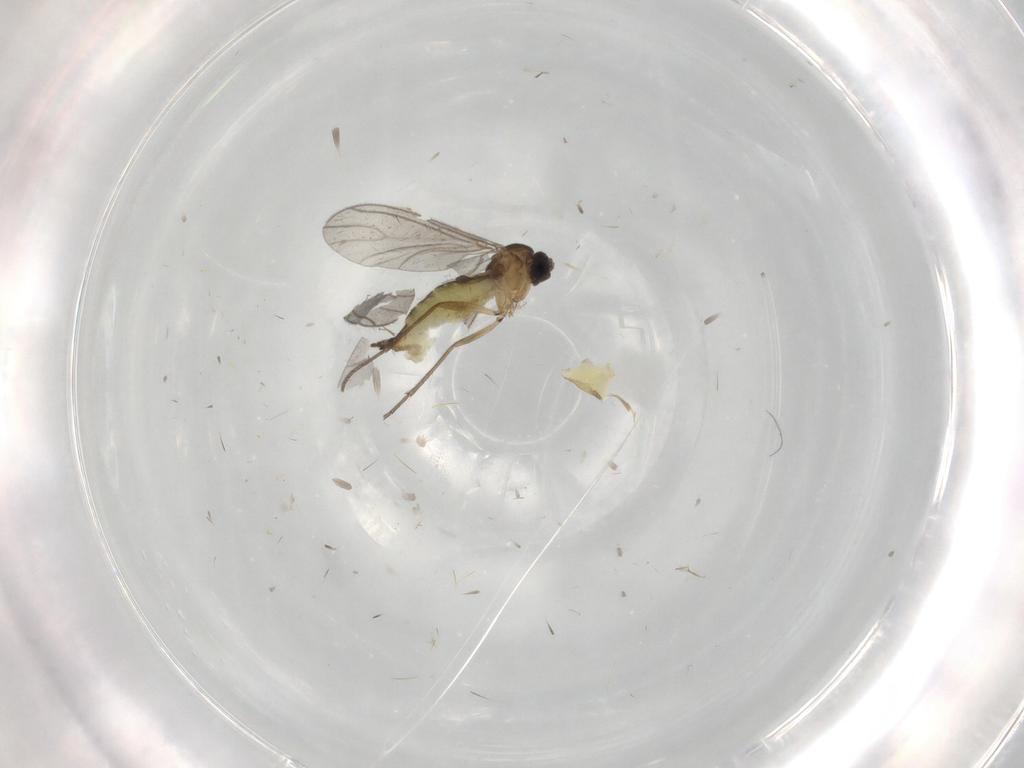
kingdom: Animalia
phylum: Arthropoda
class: Insecta
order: Diptera
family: Sciaridae
